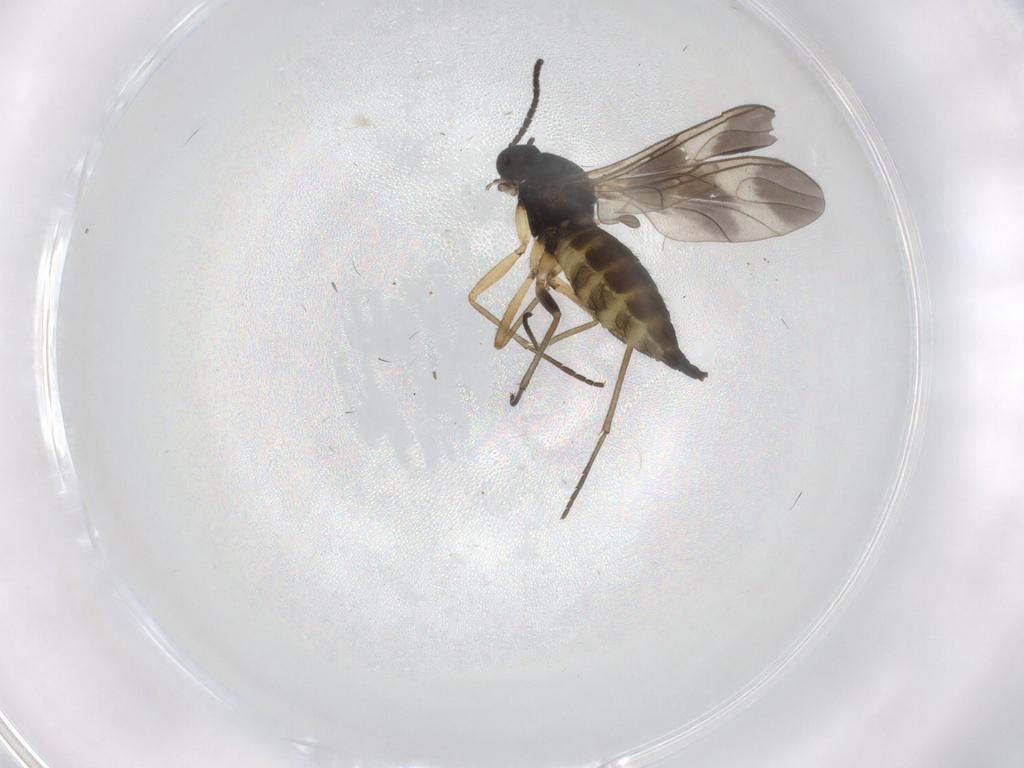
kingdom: Animalia
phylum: Arthropoda
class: Insecta
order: Diptera
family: Sciaridae
